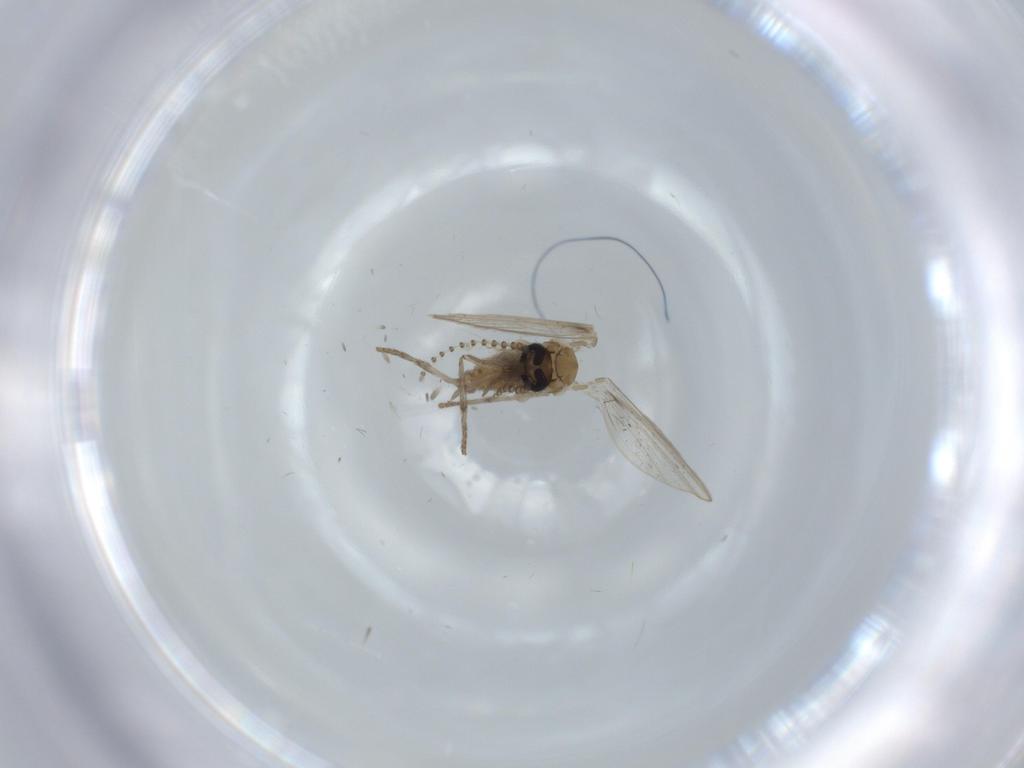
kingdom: Animalia
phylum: Arthropoda
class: Insecta
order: Diptera
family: Psychodidae
